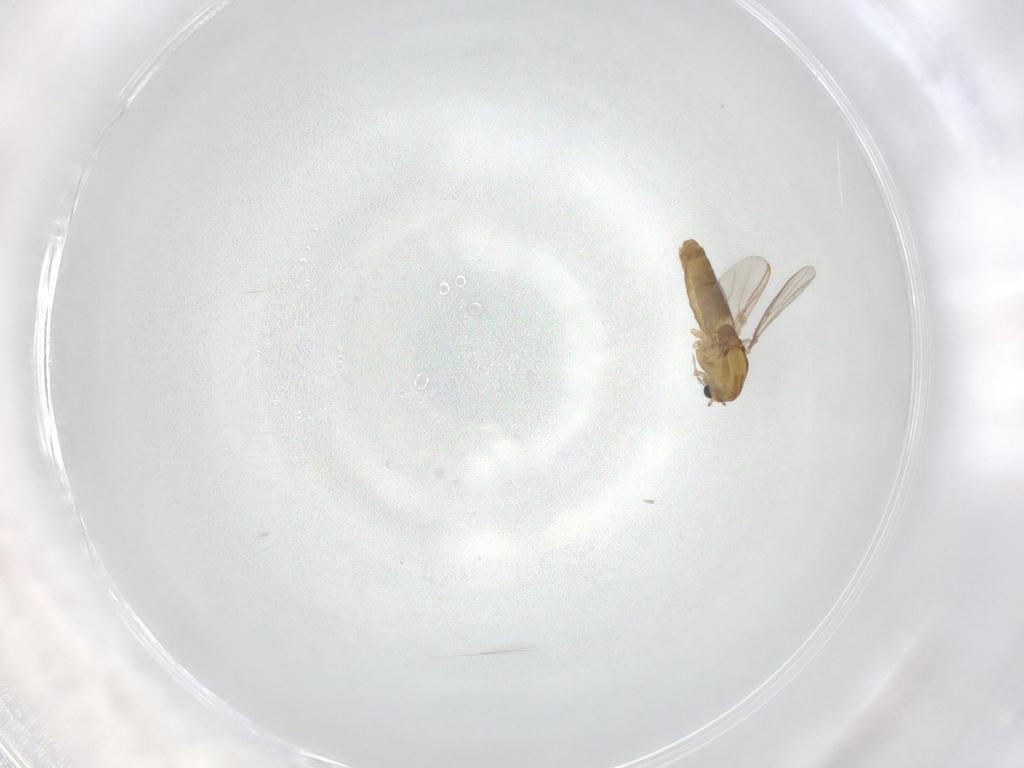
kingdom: Animalia
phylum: Arthropoda
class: Insecta
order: Diptera
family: Chironomidae
